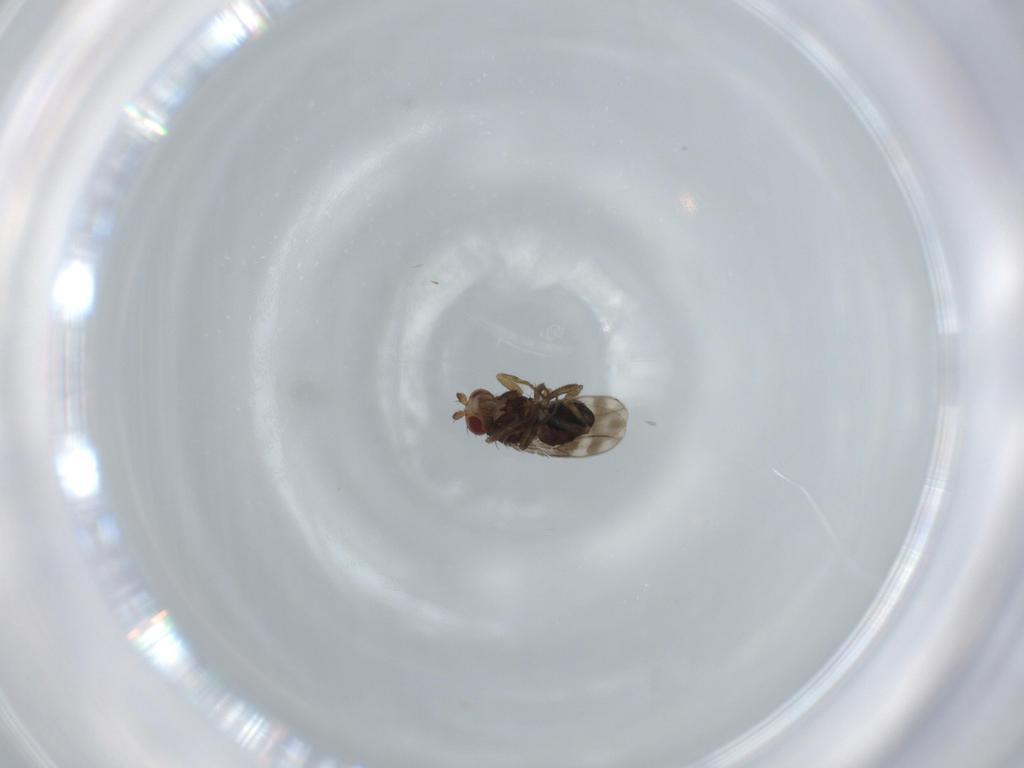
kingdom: Animalia
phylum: Arthropoda
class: Insecta
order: Diptera
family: Sphaeroceridae
